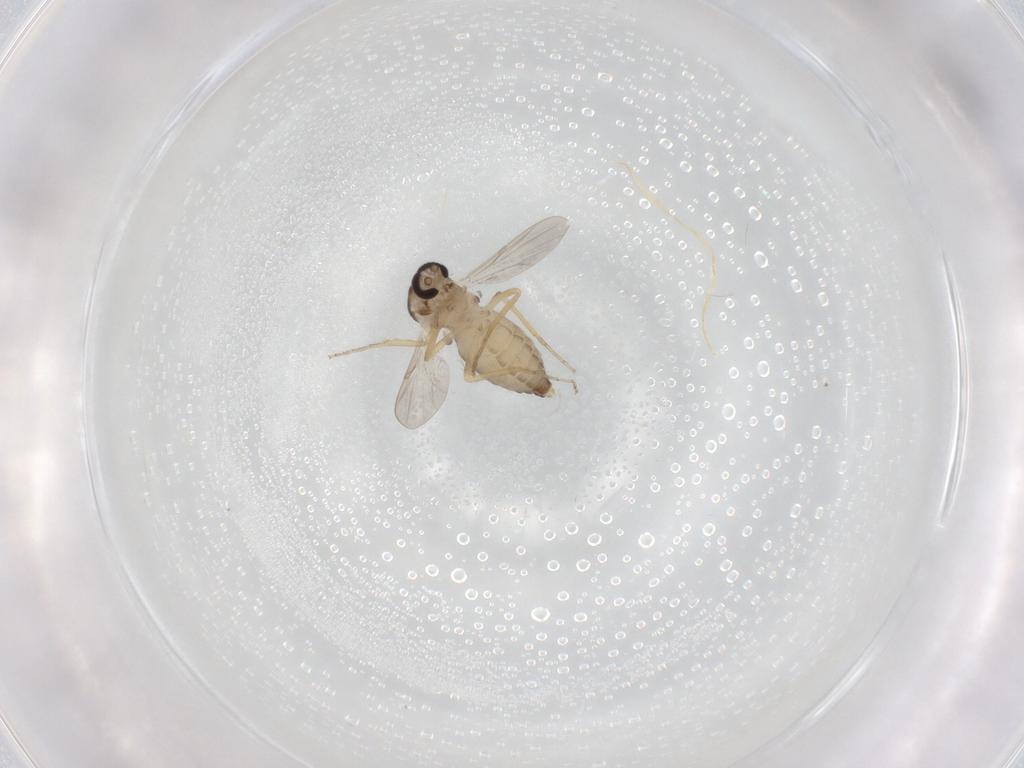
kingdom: Animalia
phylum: Arthropoda
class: Insecta
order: Diptera
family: Ceratopogonidae
